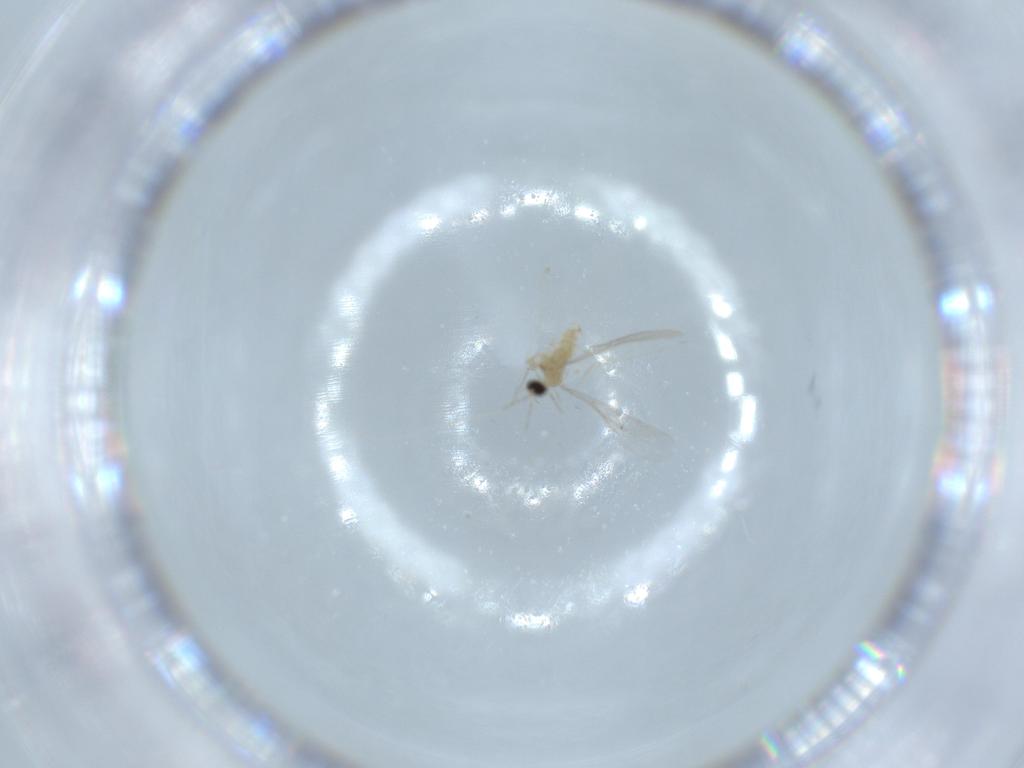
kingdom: Animalia
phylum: Arthropoda
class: Insecta
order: Diptera
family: Cecidomyiidae
